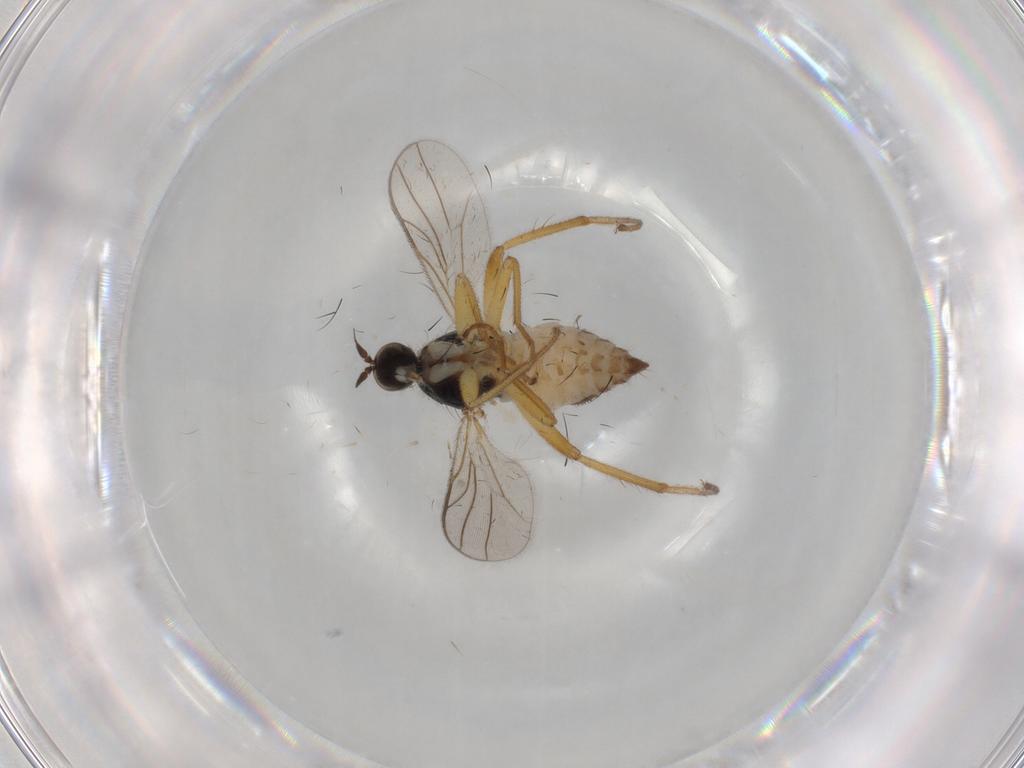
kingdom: Animalia
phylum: Arthropoda
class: Insecta
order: Diptera
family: Hybotidae
